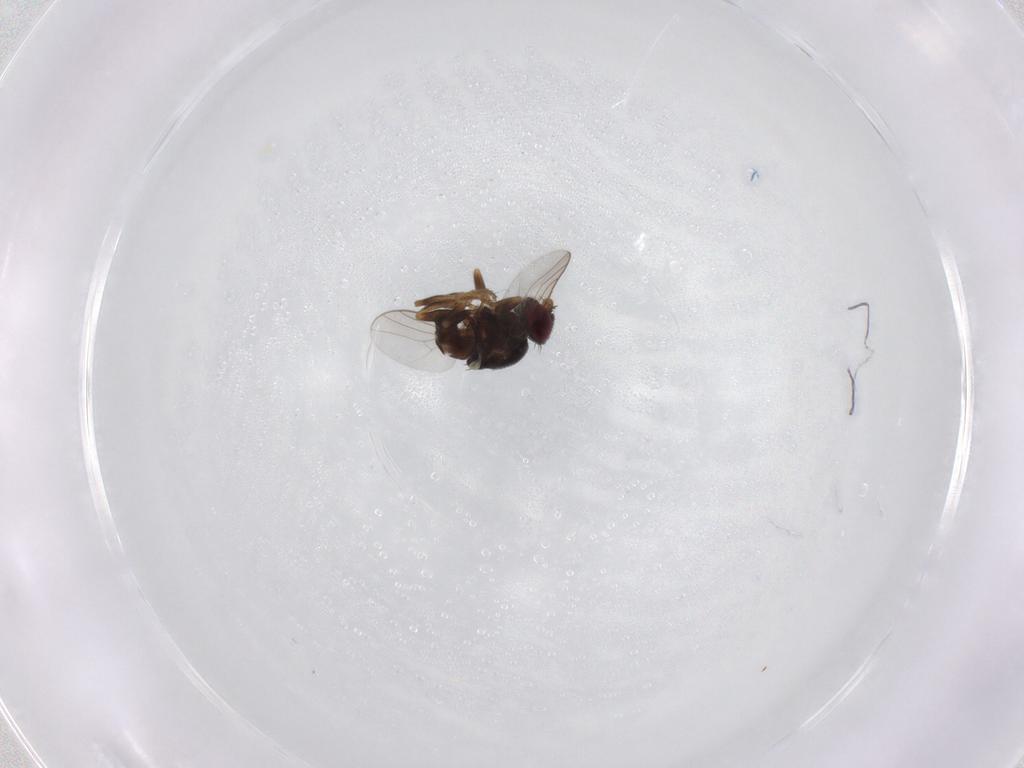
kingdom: Animalia
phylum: Arthropoda
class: Insecta
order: Diptera
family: Chloropidae
